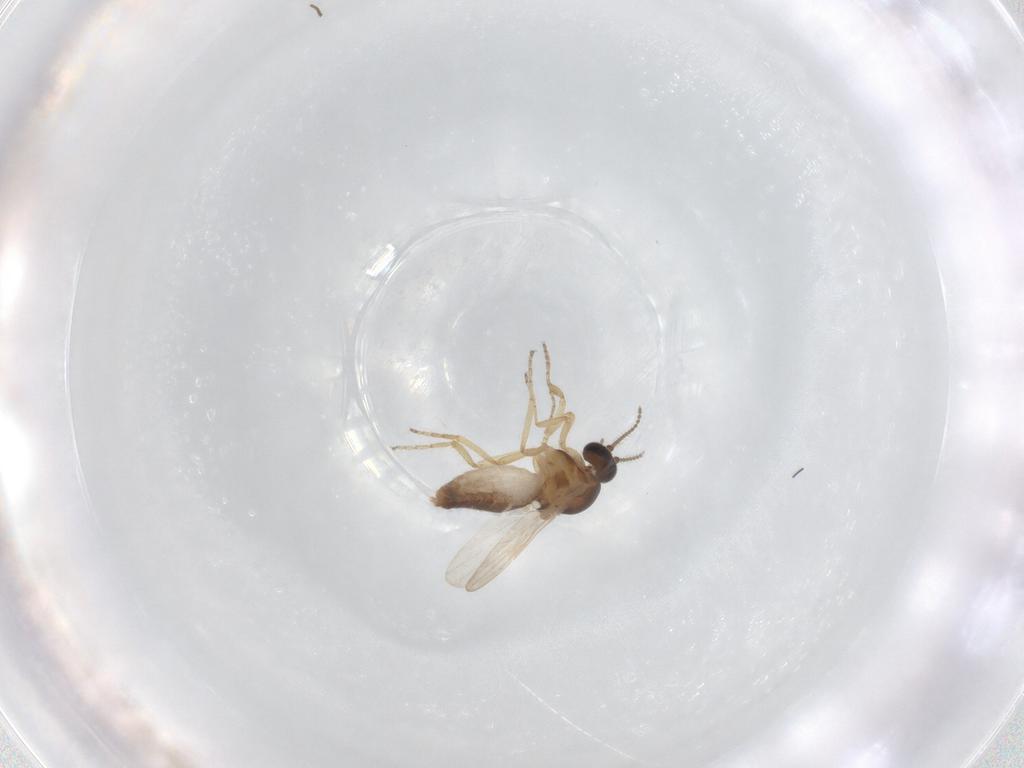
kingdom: Animalia
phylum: Arthropoda
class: Insecta
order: Diptera
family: Ceratopogonidae
